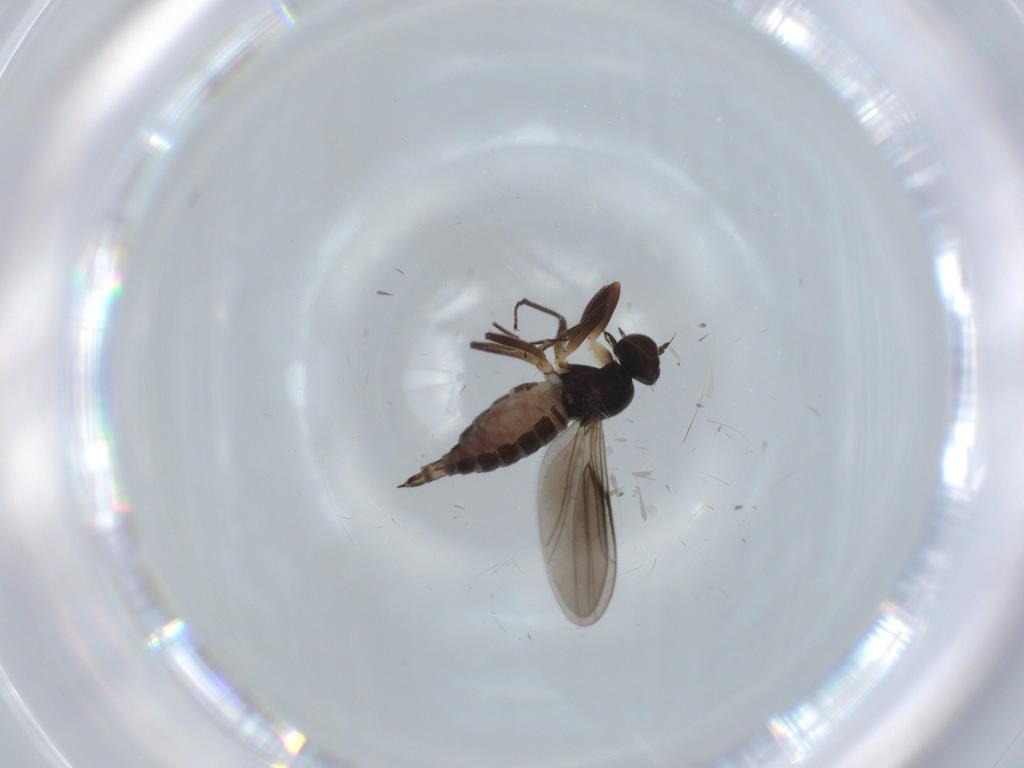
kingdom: Animalia
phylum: Arthropoda
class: Insecta
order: Diptera
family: Hybotidae
